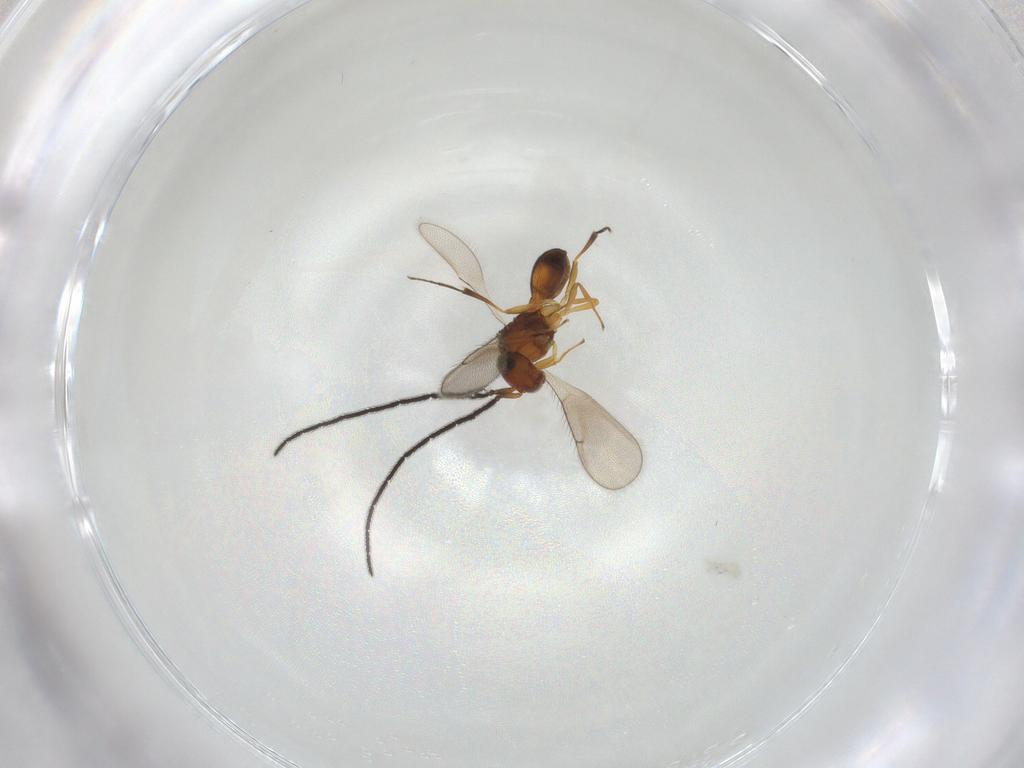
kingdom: Animalia
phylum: Arthropoda
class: Insecta
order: Hymenoptera
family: Scelionidae
